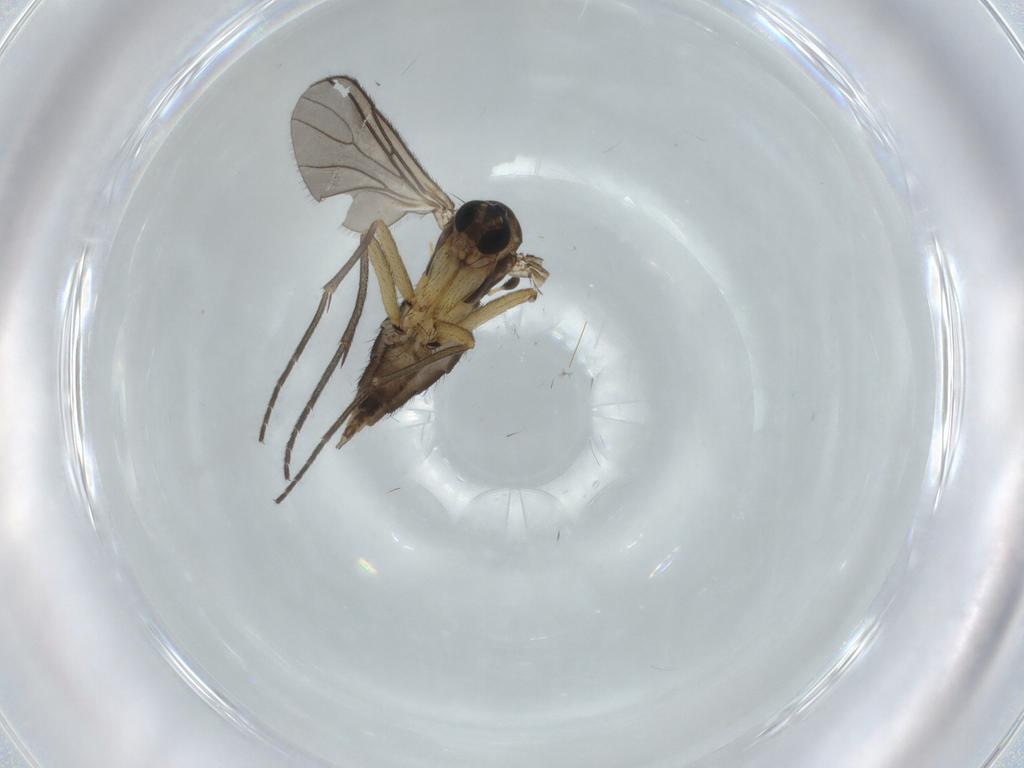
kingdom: Animalia
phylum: Arthropoda
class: Insecta
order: Diptera
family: Sciaridae
